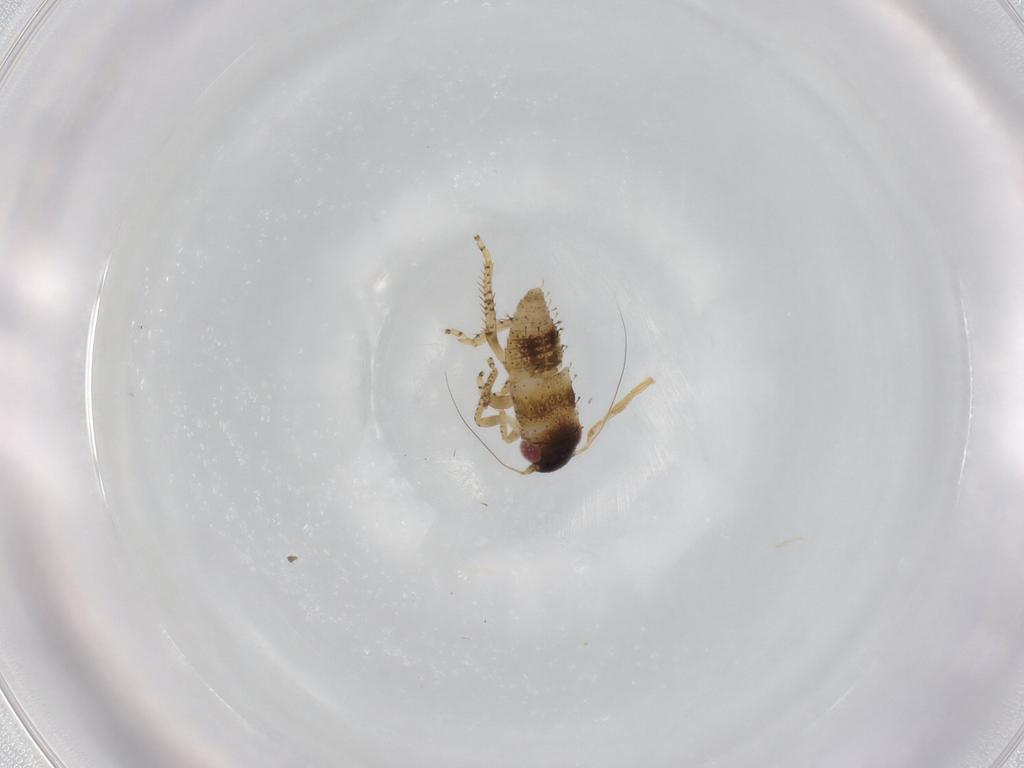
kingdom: Animalia
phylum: Arthropoda
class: Insecta
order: Hemiptera
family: Cicadellidae
